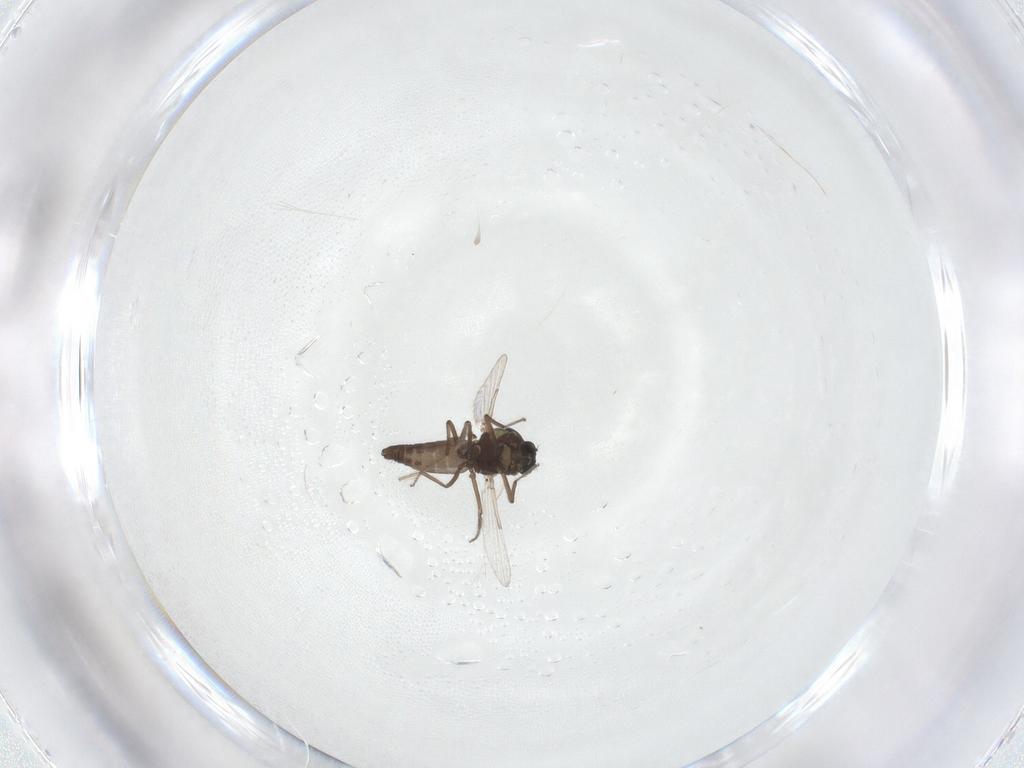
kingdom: Animalia
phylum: Arthropoda
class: Insecta
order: Diptera
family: Ceratopogonidae
